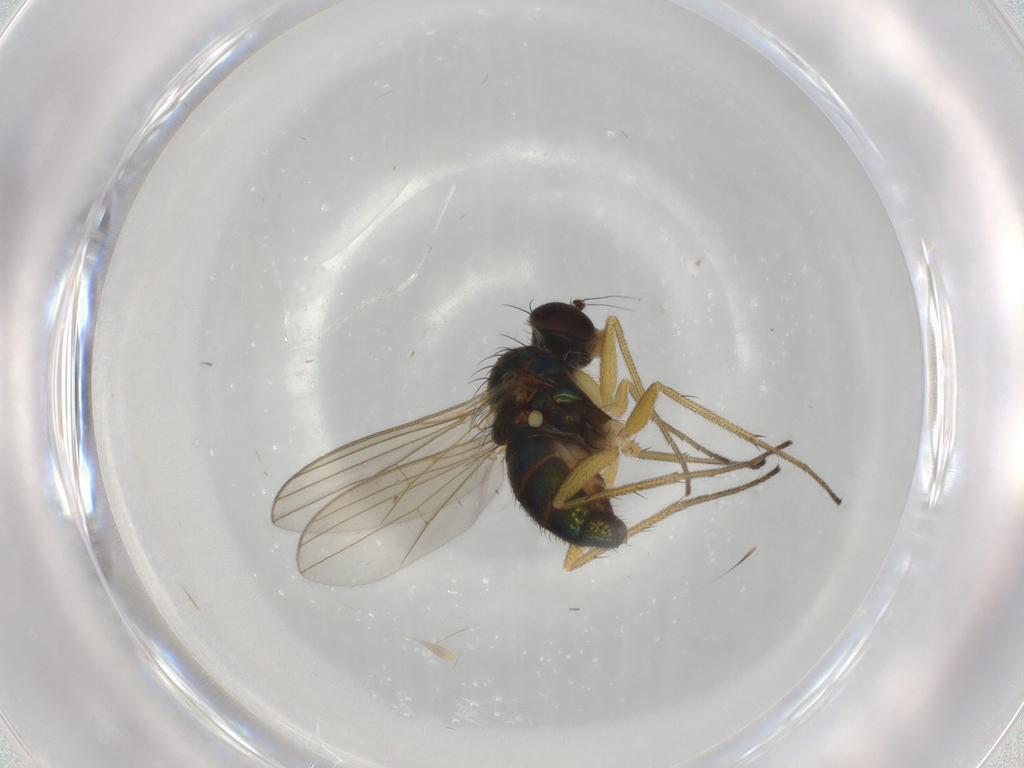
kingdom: Animalia
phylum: Arthropoda
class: Insecta
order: Diptera
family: Dolichopodidae
